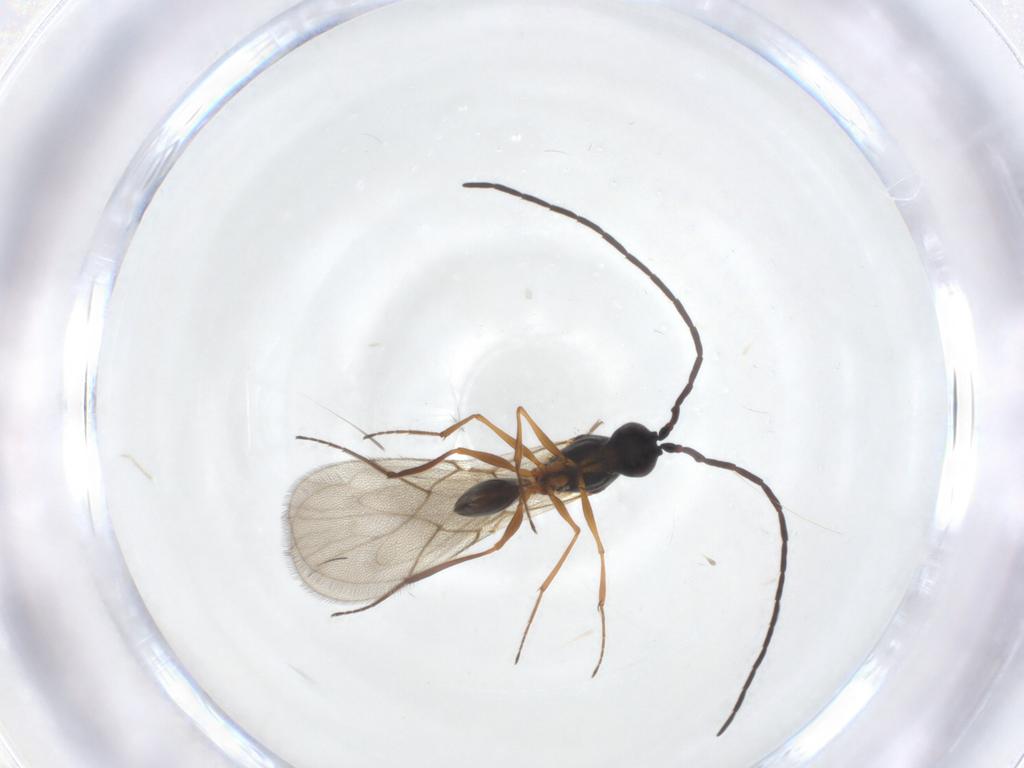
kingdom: Animalia
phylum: Arthropoda
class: Insecta
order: Hymenoptera
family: Figitidae
